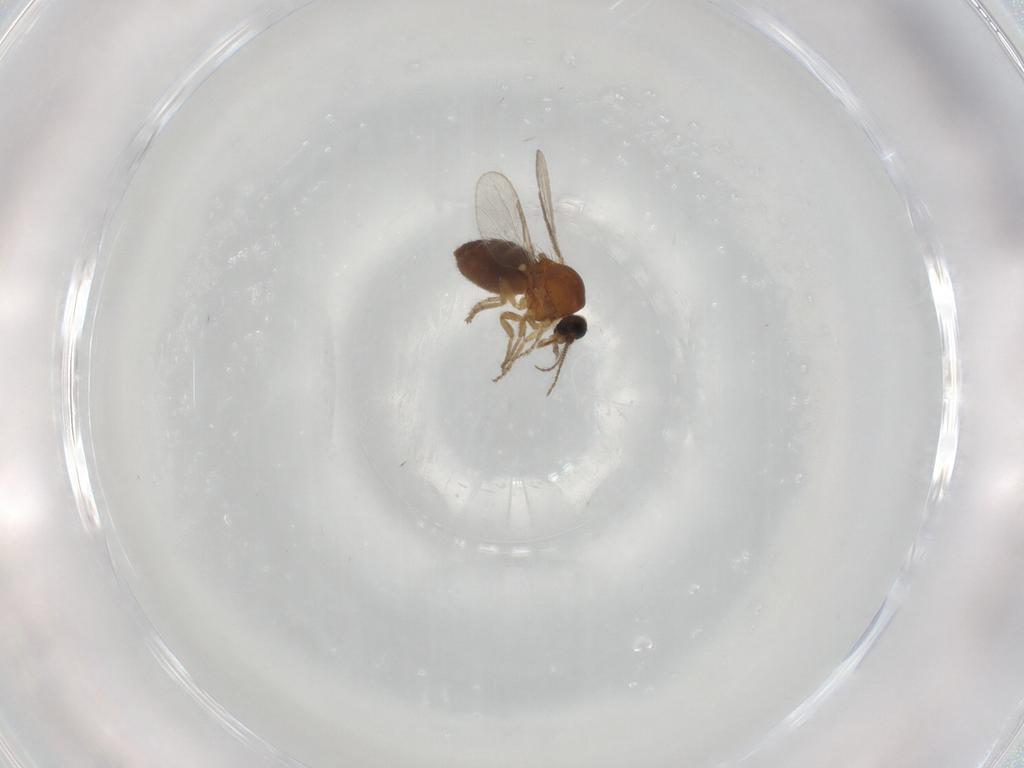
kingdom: Animalia
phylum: Arthropoda
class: Insecta
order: Diptera
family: Ceratopogonidae
